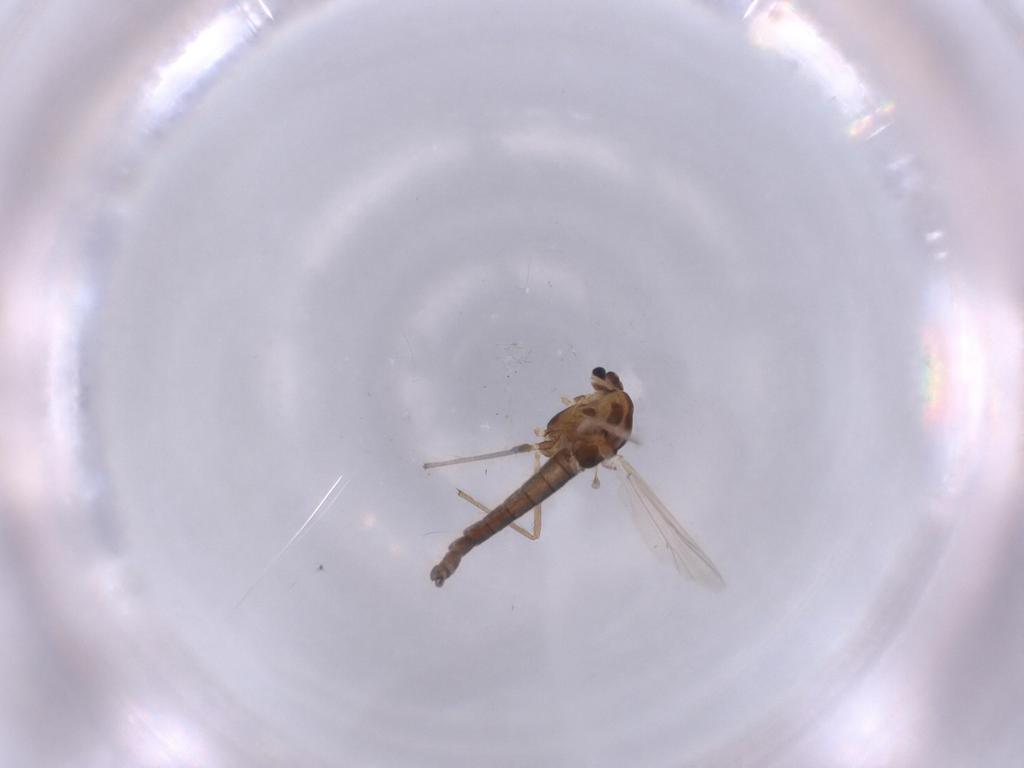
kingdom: Animalia
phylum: Arthropoda
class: Insecta
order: Diptera
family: Chironomidae
